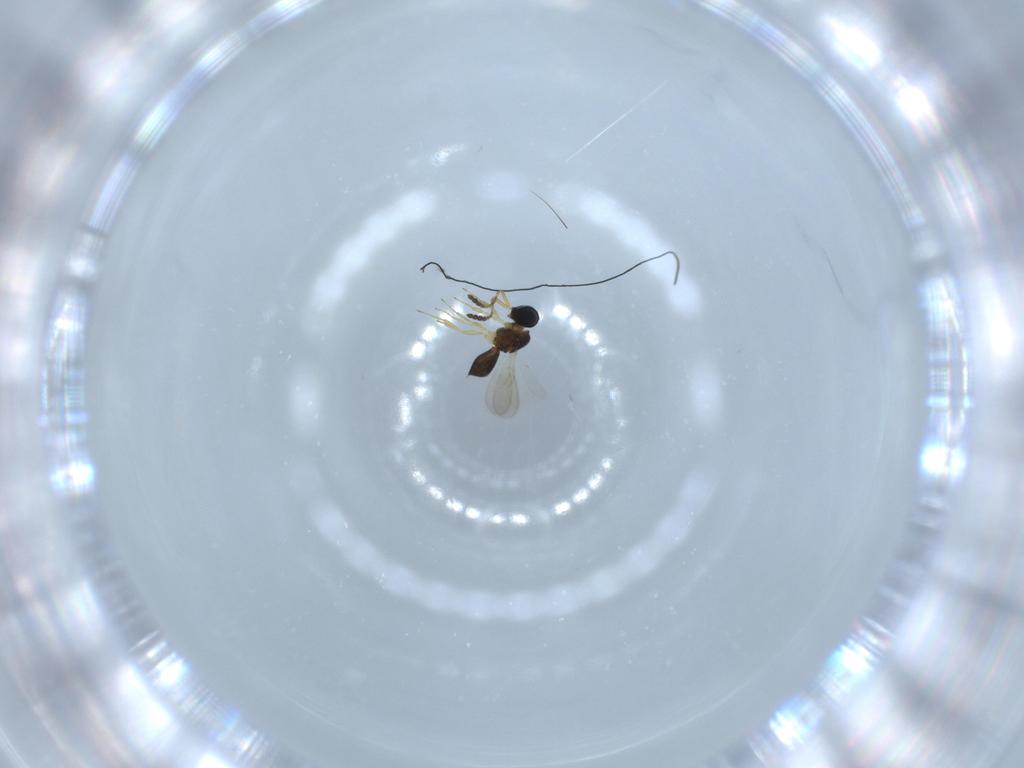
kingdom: Animalia
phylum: Arthropoda
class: Insecta
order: Hymenoptera
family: Scelionidae
